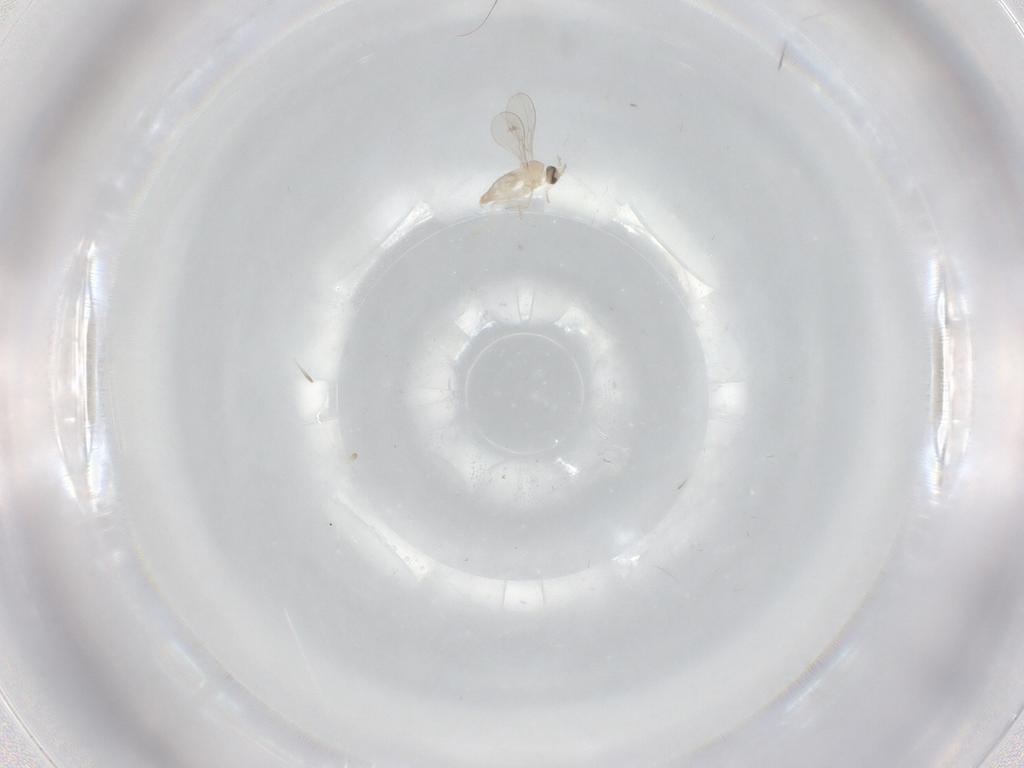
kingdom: Animalia
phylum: Arthropoda
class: Insecta
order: Diptera
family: Cecidomyiidae
